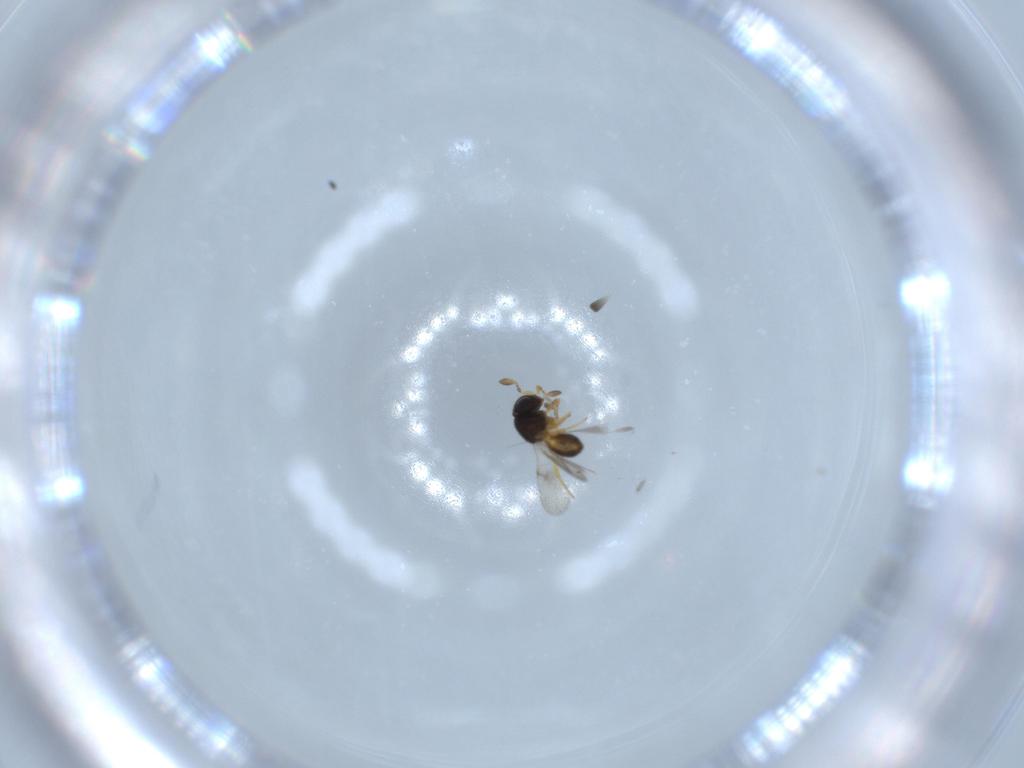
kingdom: Animalia
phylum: Arthropoda
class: Insecta
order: Hymenoptera
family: Scelionidae
